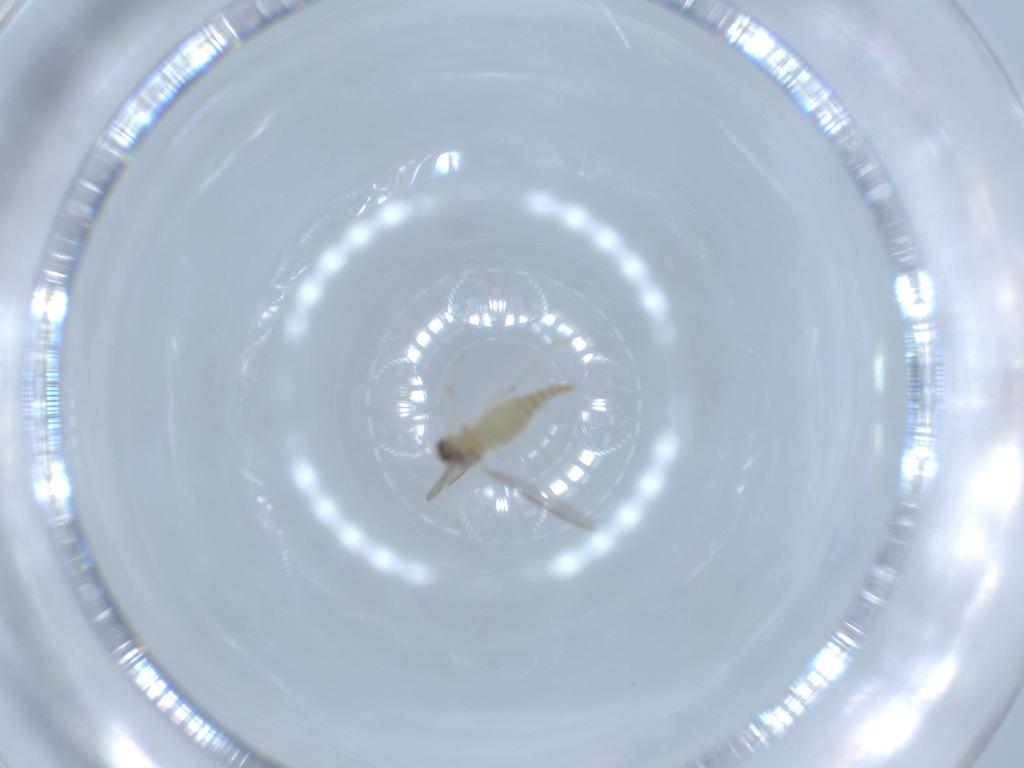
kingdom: Animalia
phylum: Arthropoda
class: Insecta
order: Diptera
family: Cecidomyiidae
